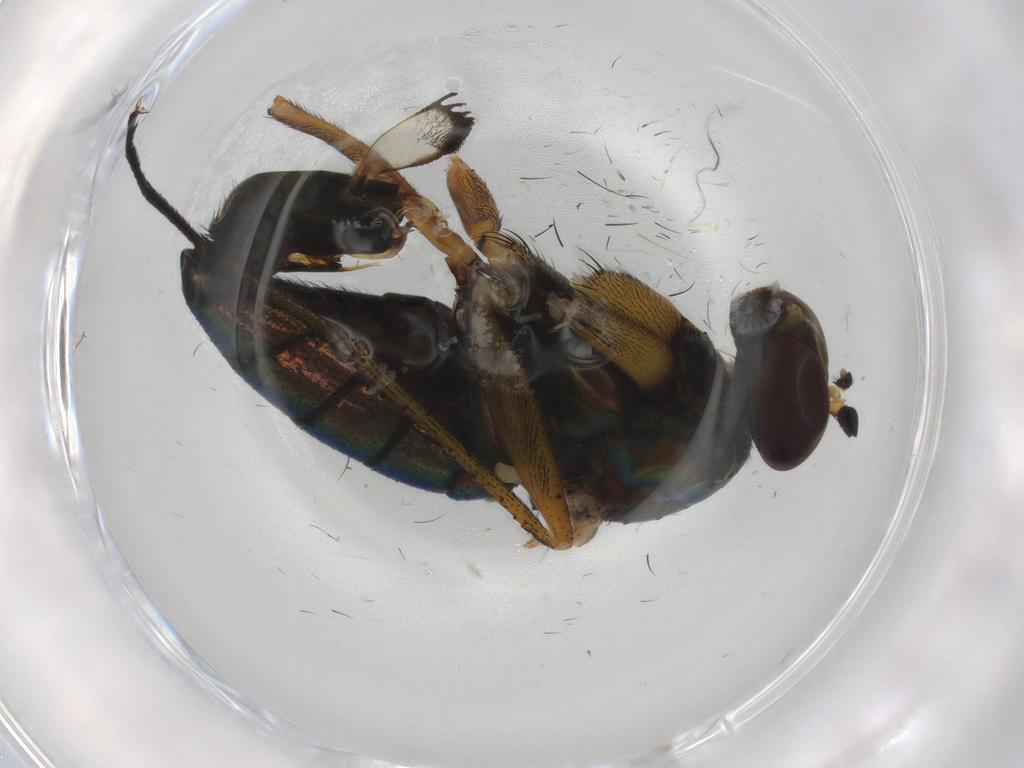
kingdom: Animalia
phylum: Arthropoda
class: Insecta
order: Diptera
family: Dolichopodidae
